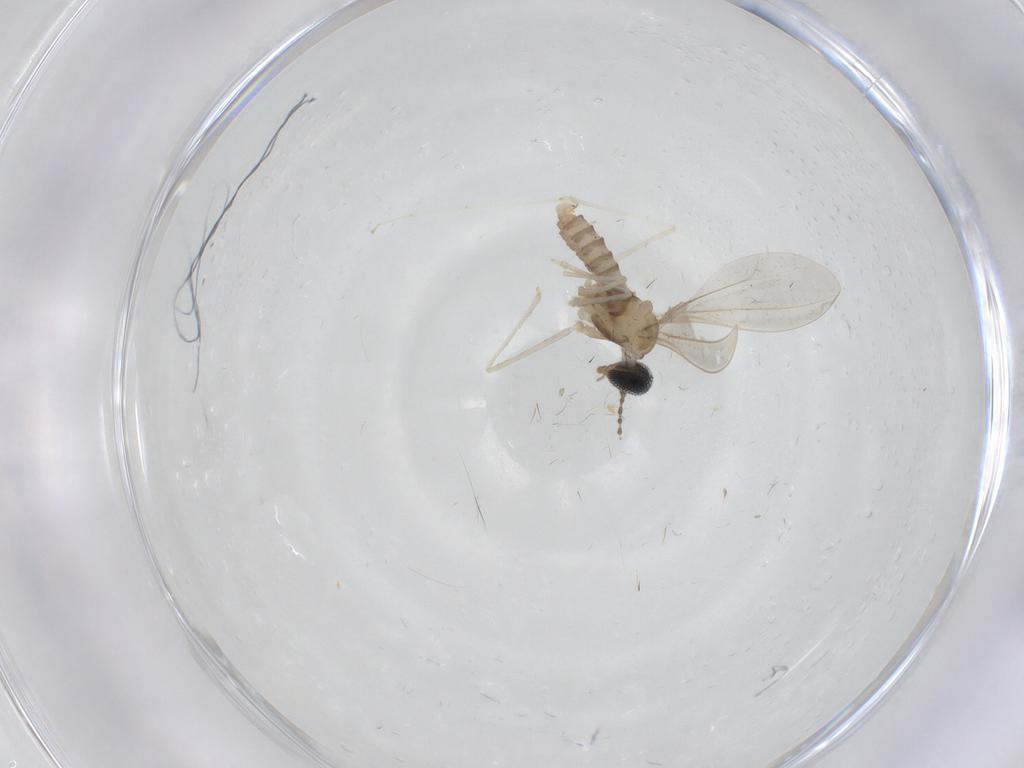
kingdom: Animalia
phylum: Arthropoda
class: Insecta
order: Diptera
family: Cecidomyiidae
